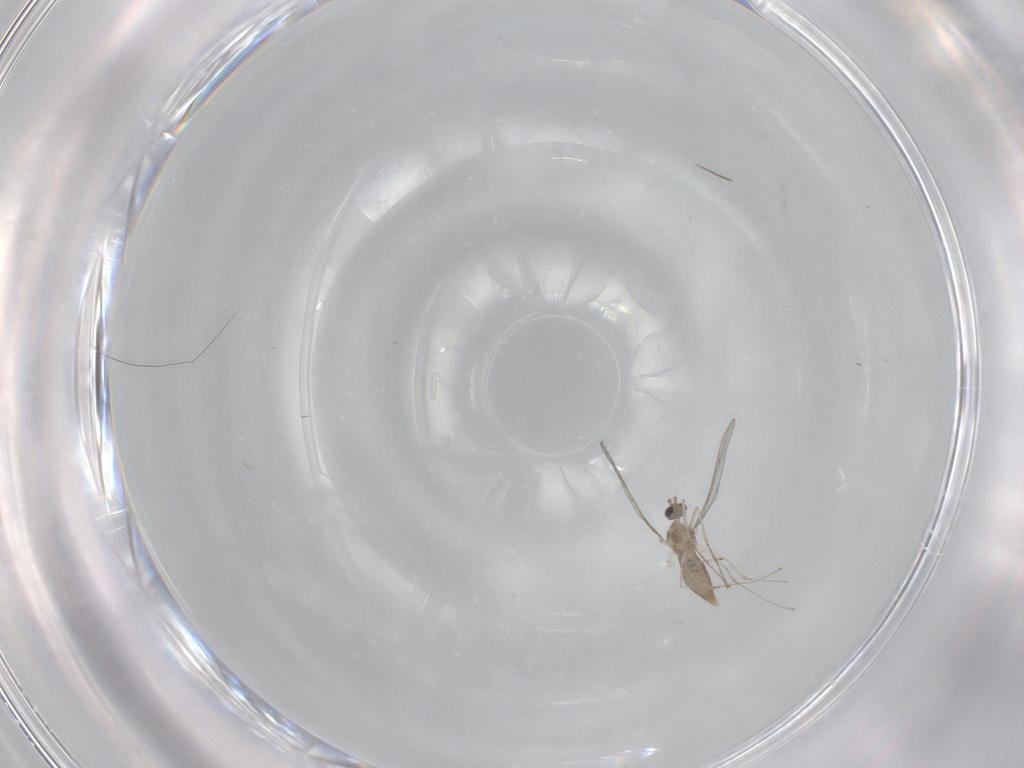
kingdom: Animalia
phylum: Arthropoda
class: Insecta
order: Diptera
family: Cecidomyiidae
